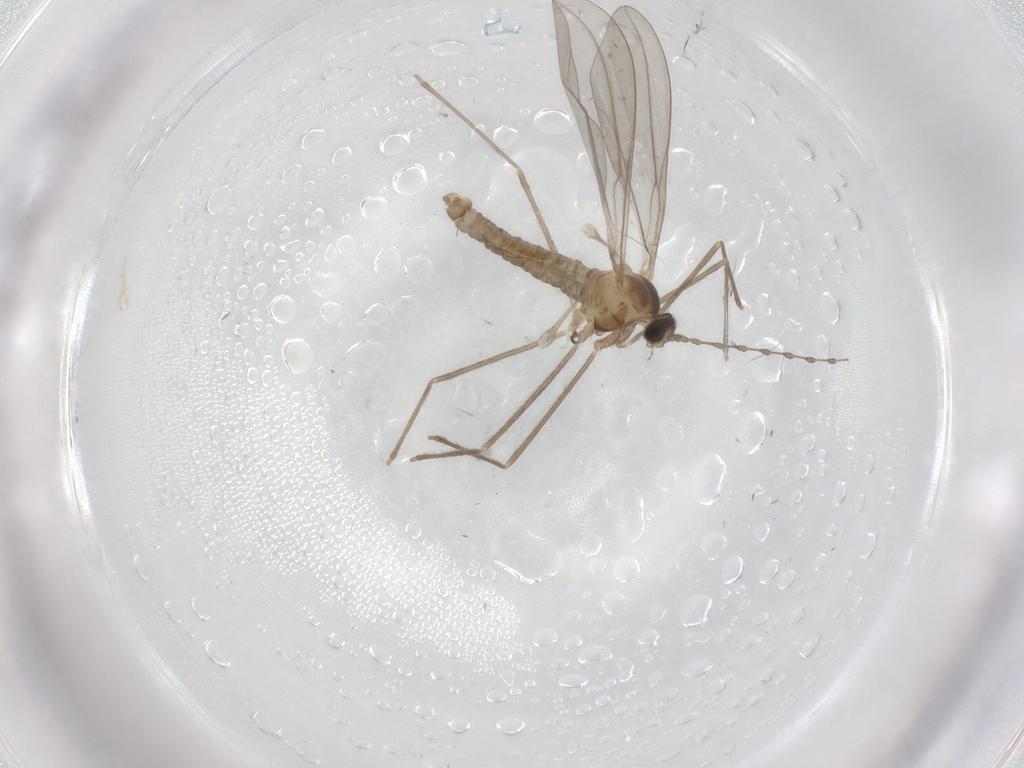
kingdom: Animalia
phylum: Arthropoda
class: Insecta
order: Diptera
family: Cecidomyiidae
